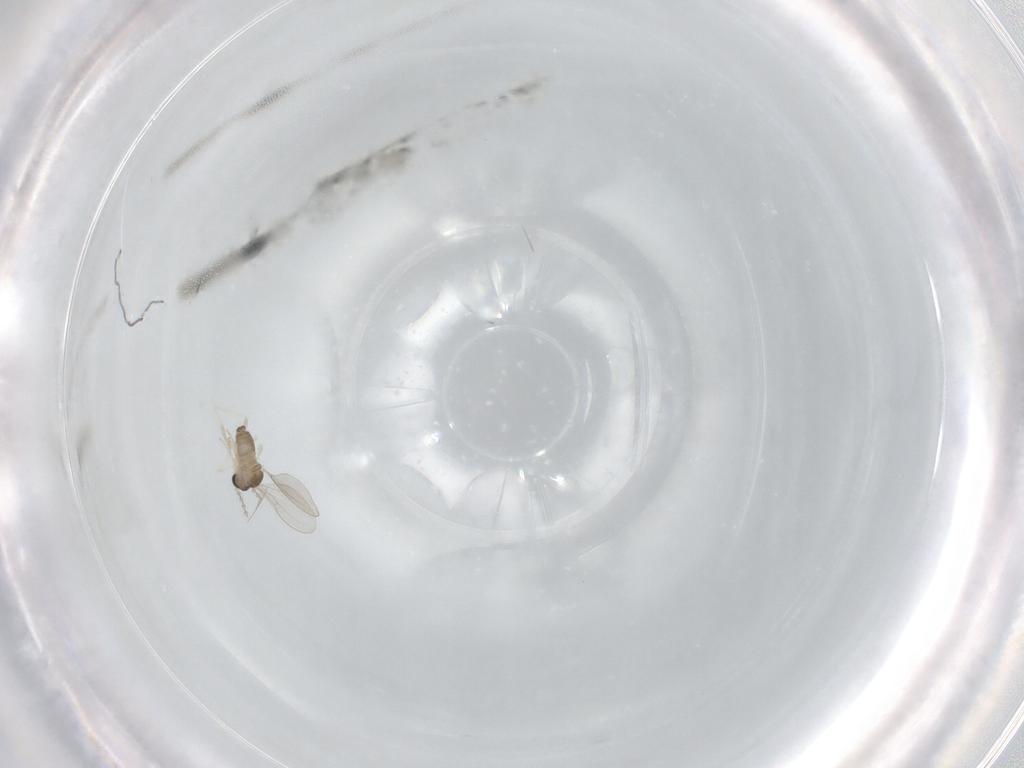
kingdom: Animalia
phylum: Arthropoda
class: Insecta
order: Diptera
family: Cecidomyiidae
